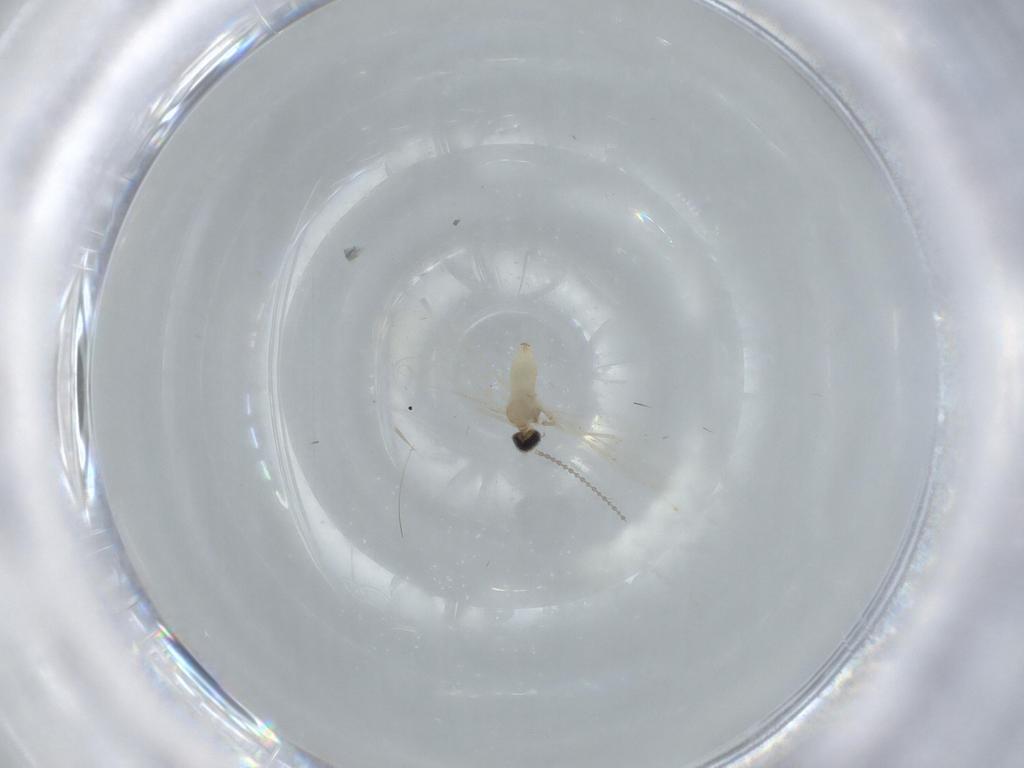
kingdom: Animalia
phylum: Arthropoda
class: Insecta
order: Diptera
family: Cecidomyiidae
